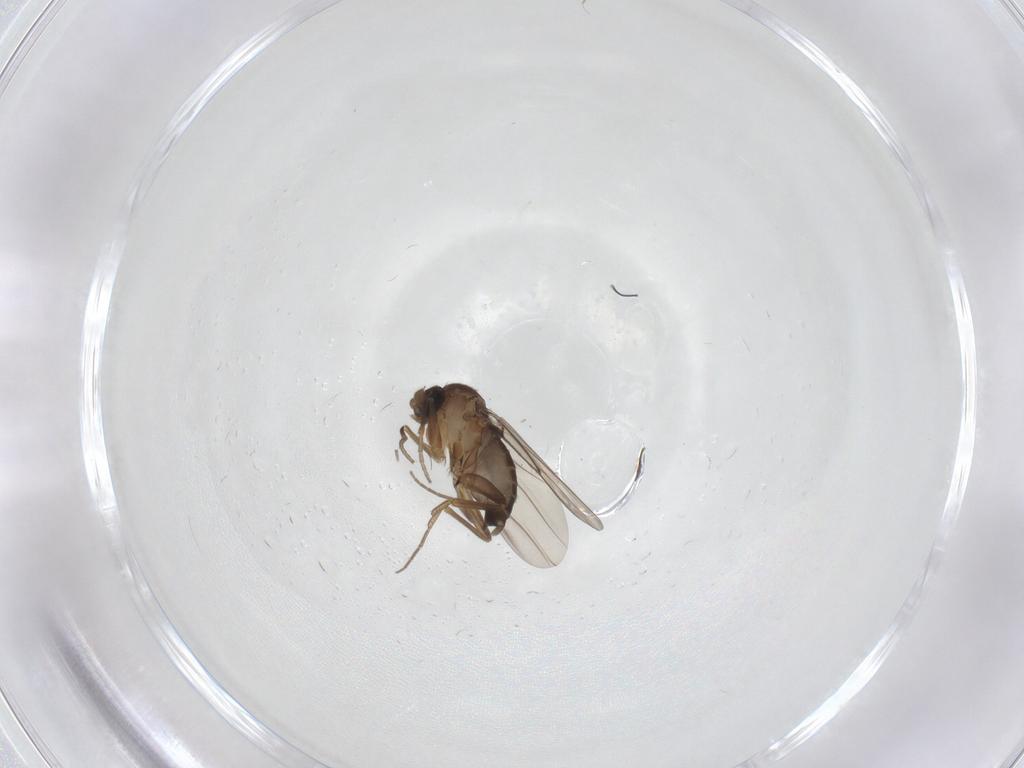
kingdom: Animalia
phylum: Arthropoda
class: Insecta
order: Diptera
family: Phoridae
